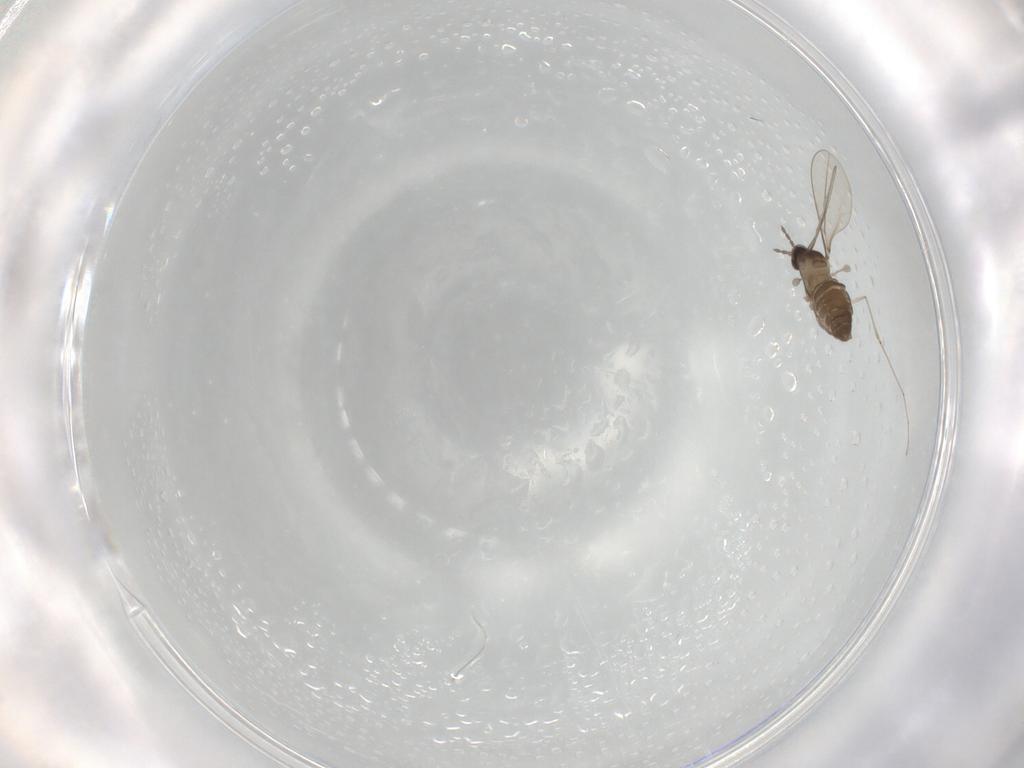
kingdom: Animalia
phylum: Arthropoda
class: Insecta
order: Diptera
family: Cecidomyiidae
